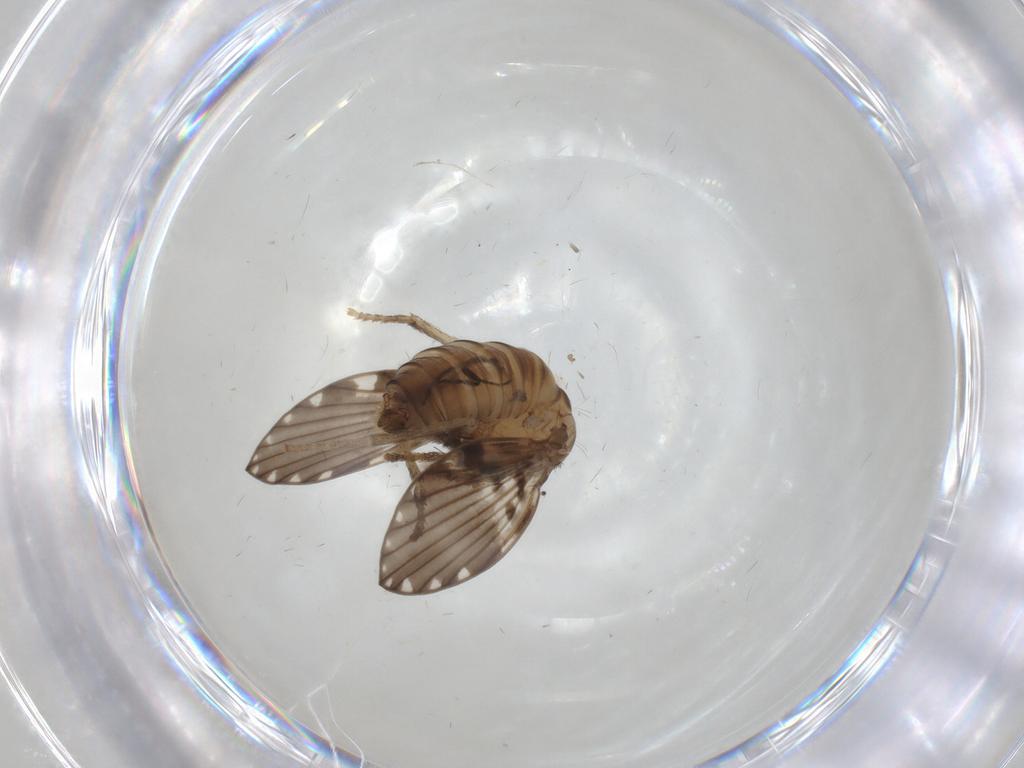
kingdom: Animalia
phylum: Arthropoda
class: Insecta
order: Diptera
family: Psychodidae
